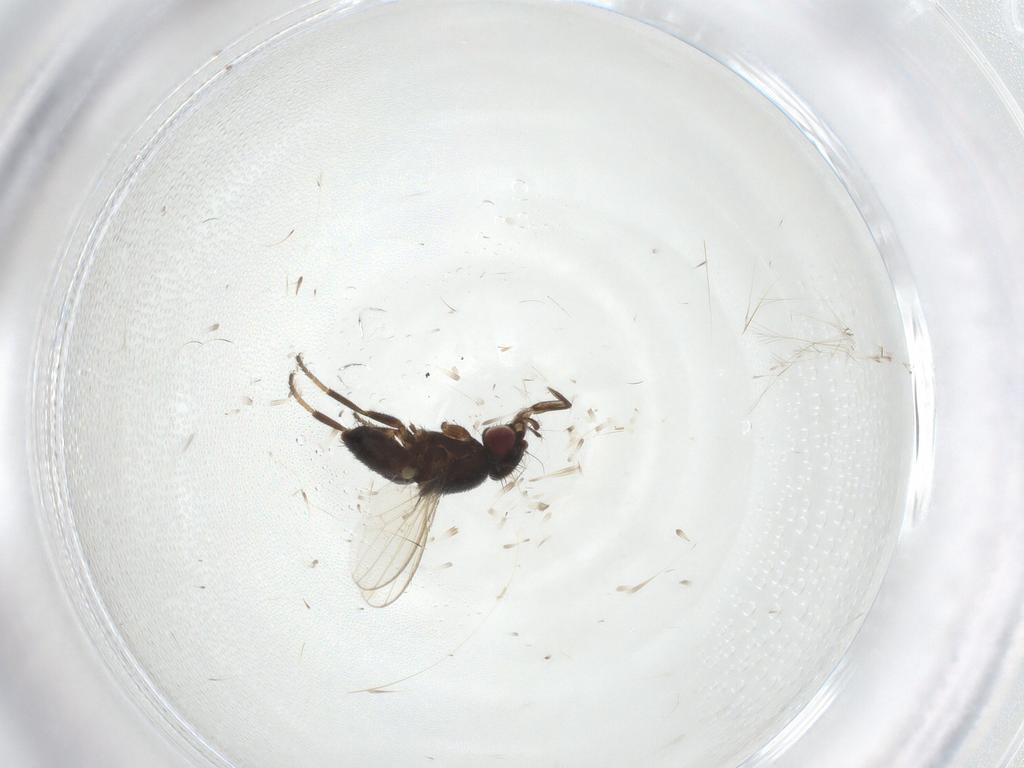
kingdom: Animalia
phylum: Arthropoda
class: Insecta
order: Diptera
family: Milichiidae
